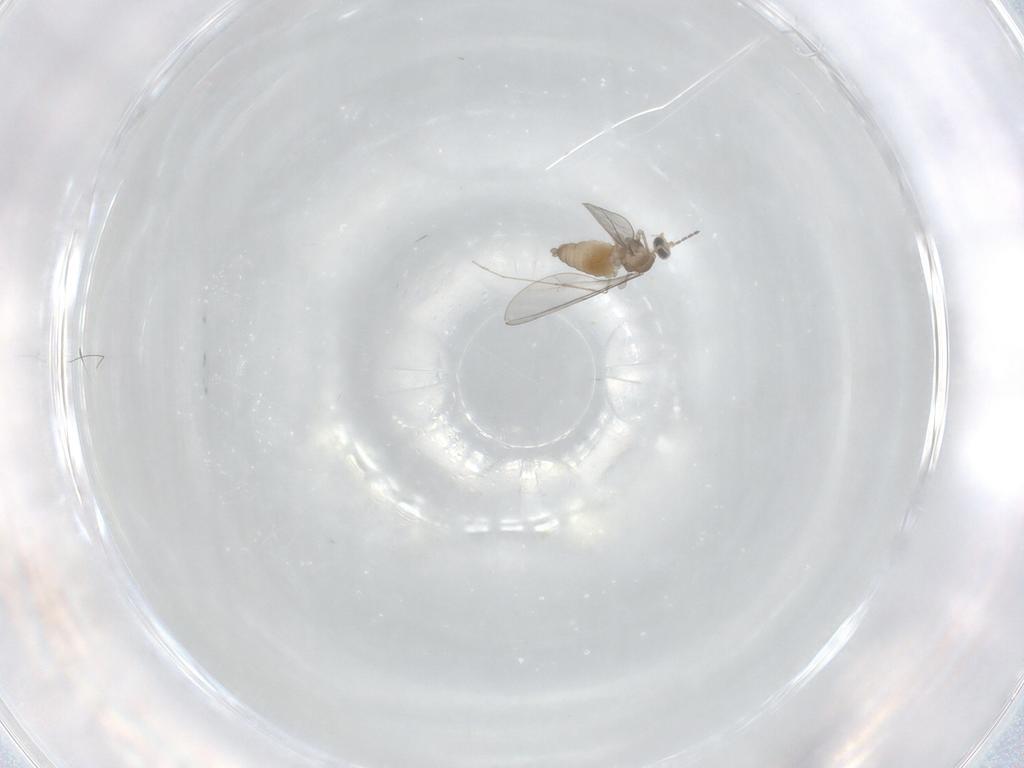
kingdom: Animalia
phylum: Arthropoda
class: Insecta
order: Diptera
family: Cecidomyiidae
